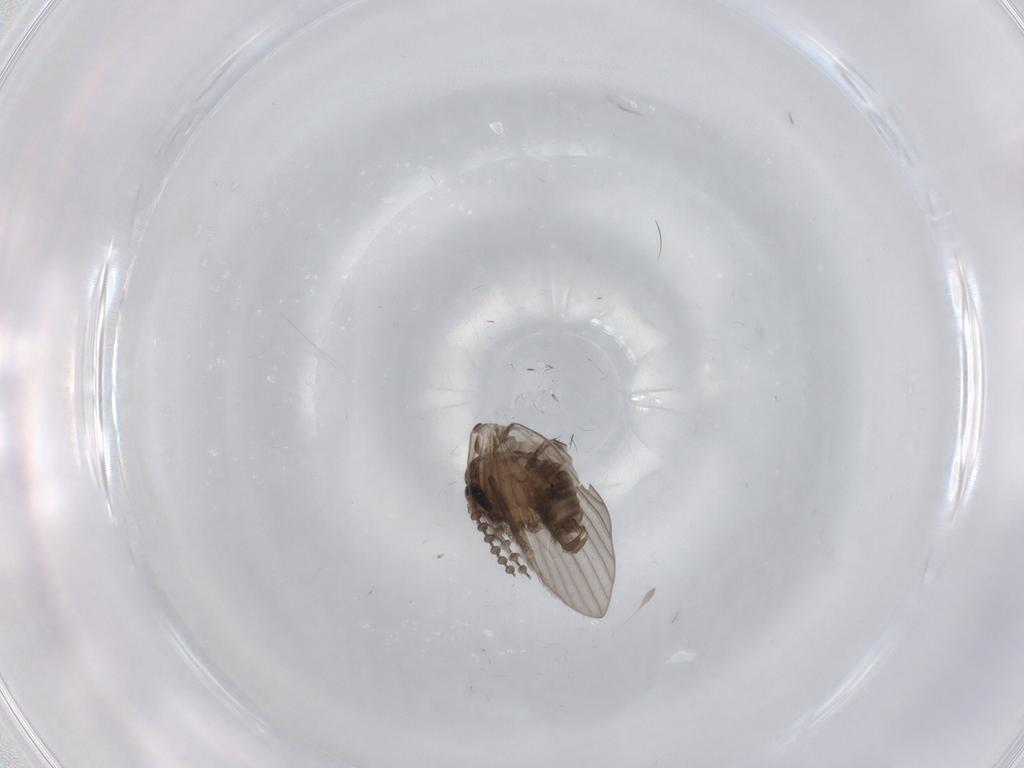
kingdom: Animalia
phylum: Arthropoda
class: Insecta
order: Diptera
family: Psychodidae
